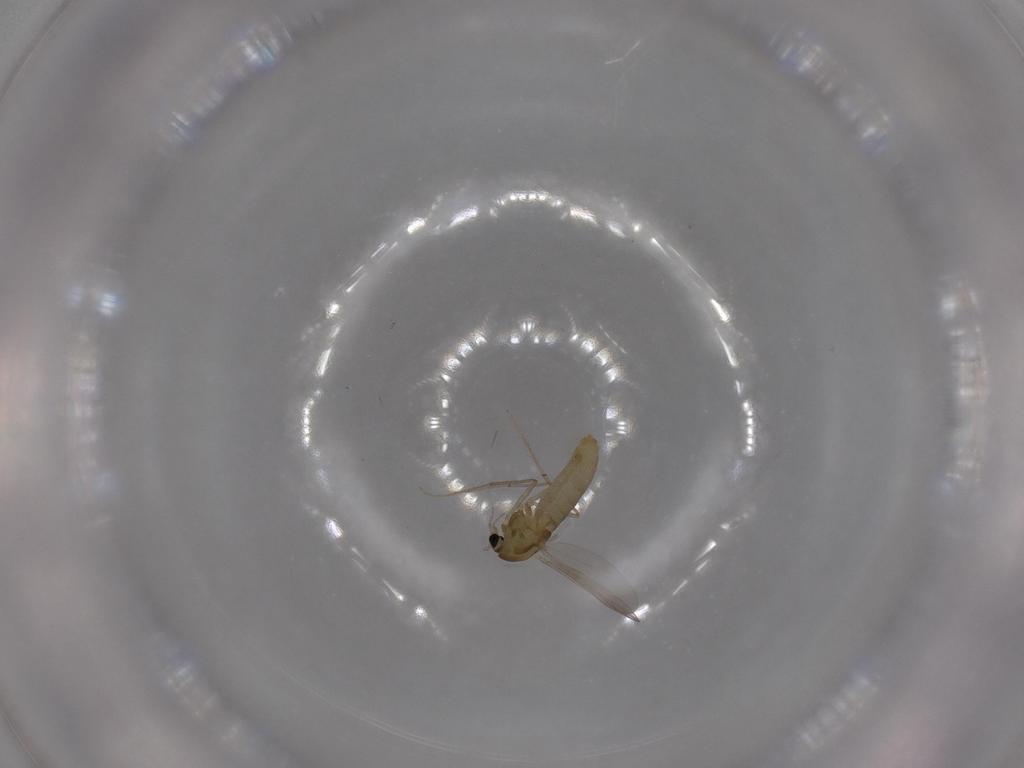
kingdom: Animalia
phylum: Arthropoda
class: Insecta
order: Diptera
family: Chironomidae
